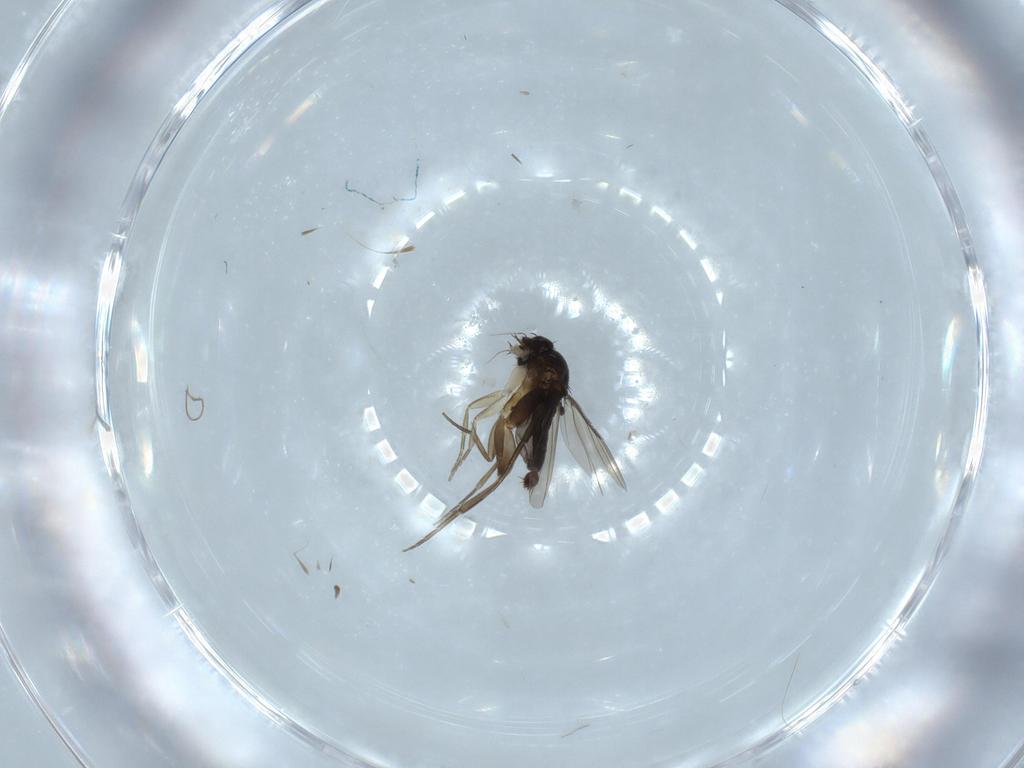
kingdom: Animalia
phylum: Arthropoda
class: Insecta
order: Diptera
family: Phoridae
